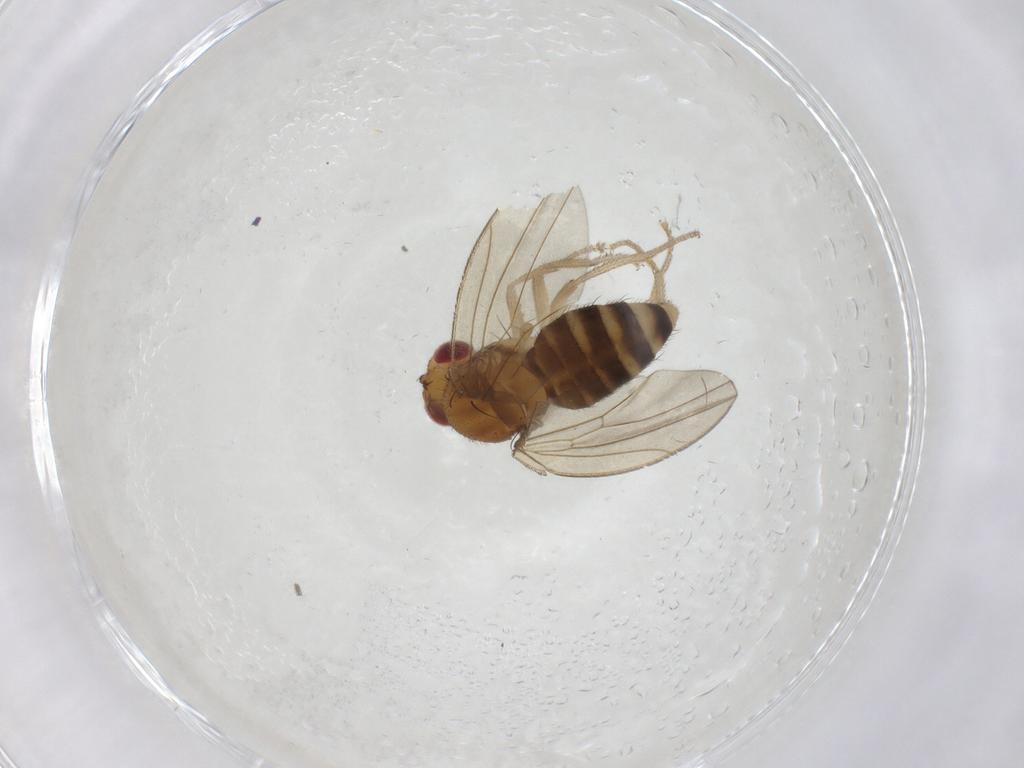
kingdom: Animalia
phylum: Arthropoda
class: Insecta
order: Diptera
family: Drosophilidae
